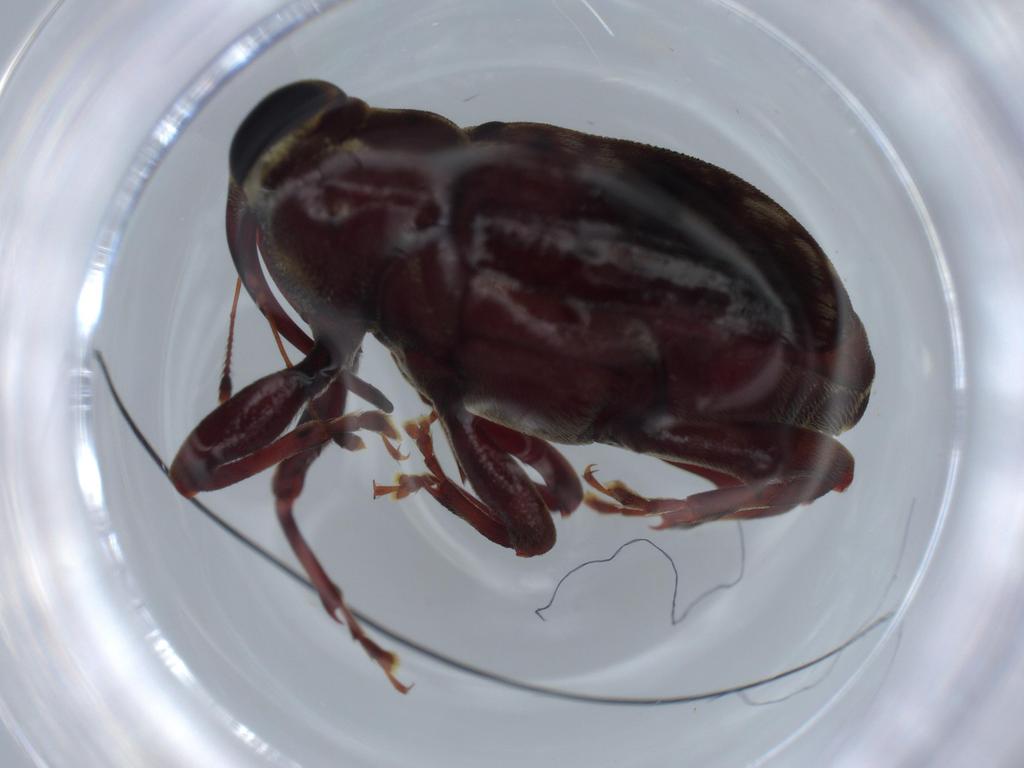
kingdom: Animalia
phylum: Arthropoda
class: Insecta
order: Coleoptera
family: Curculionidae
